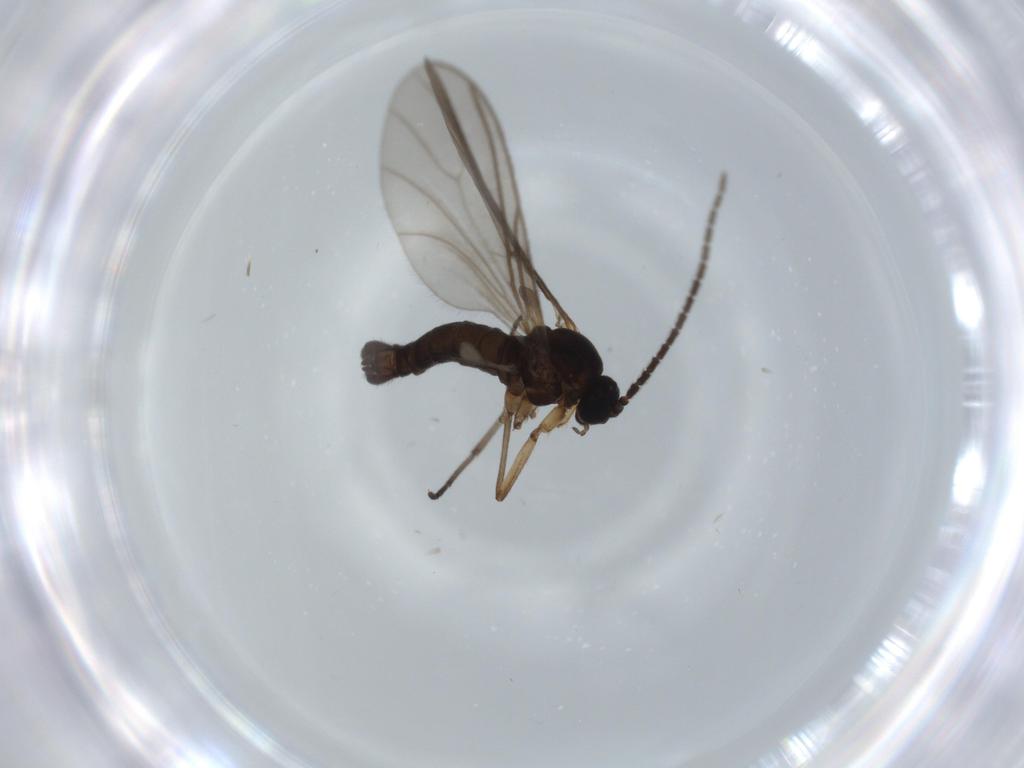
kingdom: Animalia
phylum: Arthropoda
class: Insecta
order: Diptera
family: Sciaridae
